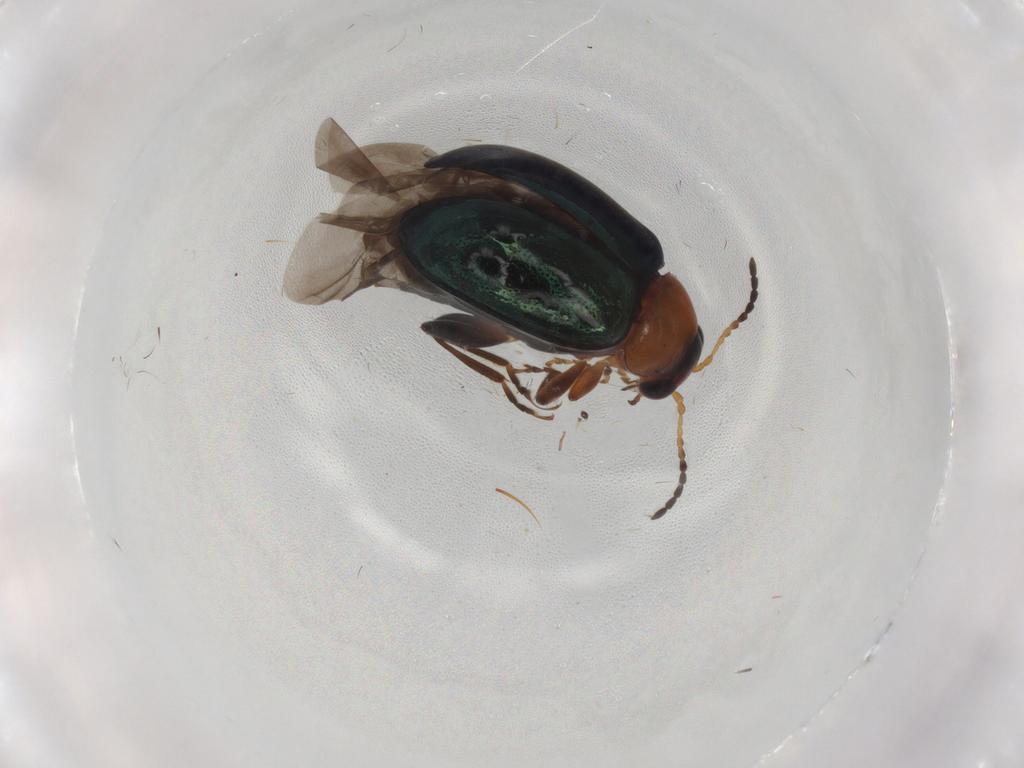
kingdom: Animalia
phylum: Arthropoda
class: Insecta
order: Coleoptera
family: Chrysomelidae
